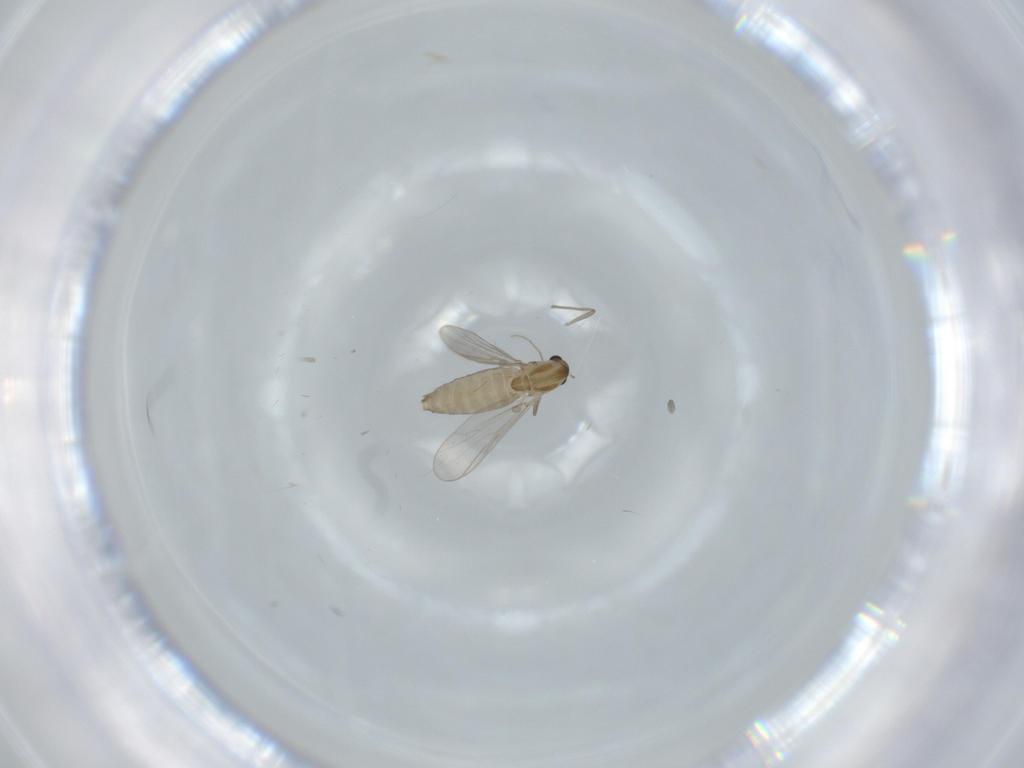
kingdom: Animalia
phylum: Arthropoda
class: Insecta
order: Diptera
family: Chironomidae
